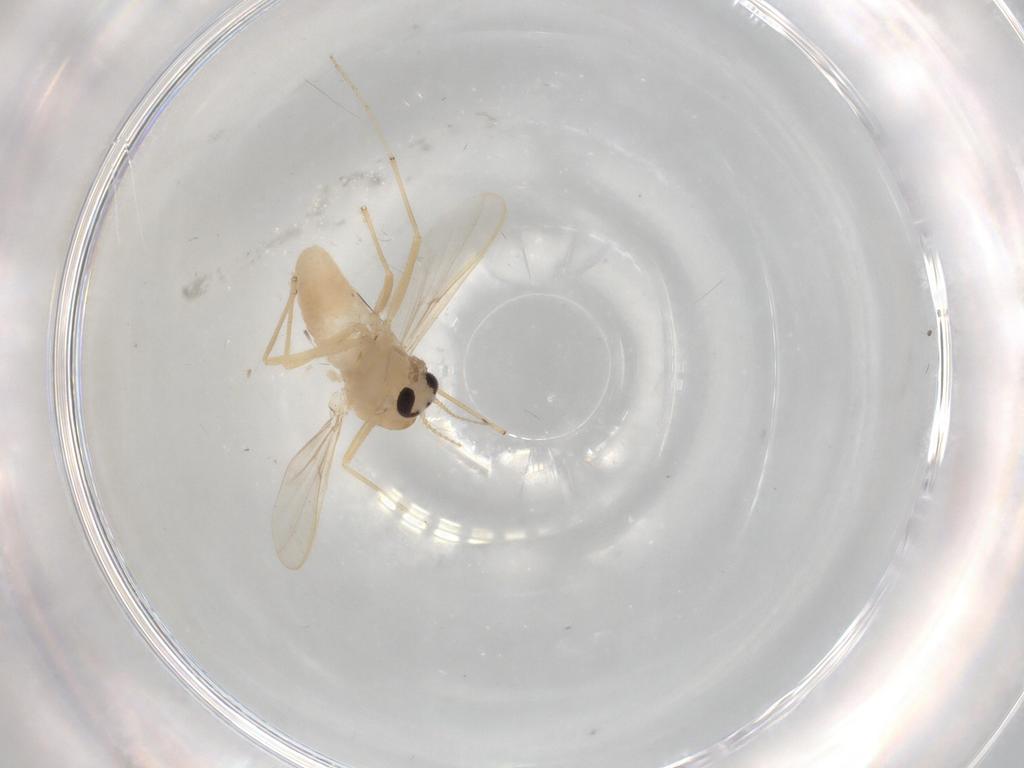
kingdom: Animalia
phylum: Arthropoda
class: Insecta
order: Diptera
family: Chironomidae
